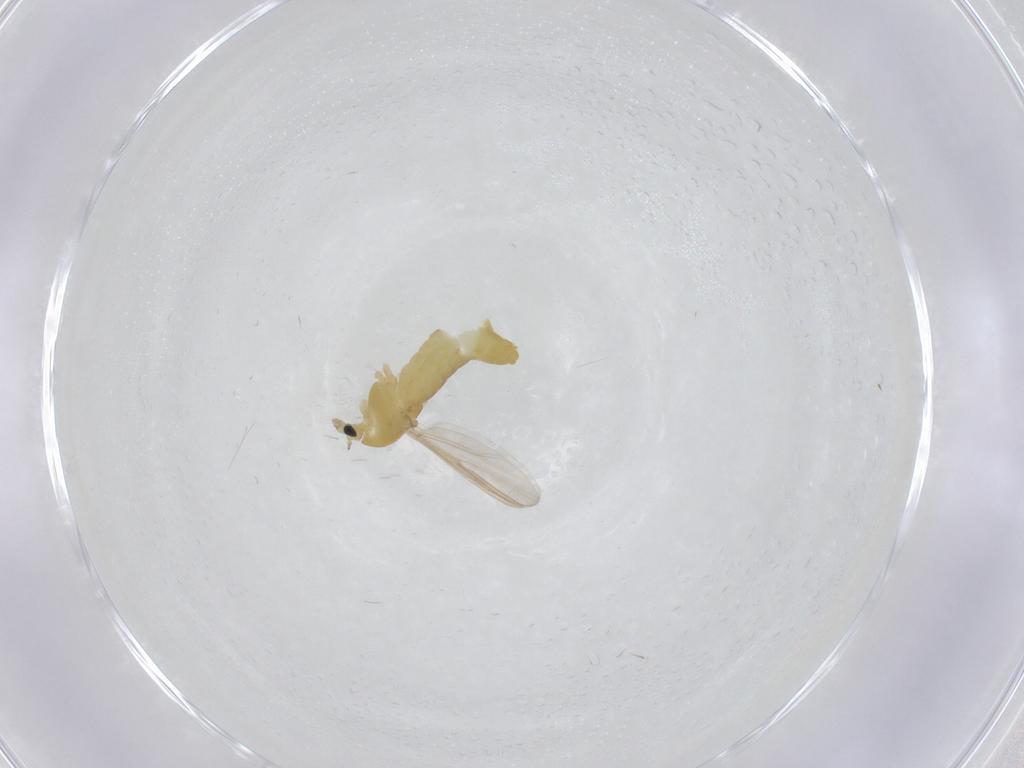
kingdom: Animalia
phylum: Arthropoda
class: Insecta
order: Diptera
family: Chironomidae
